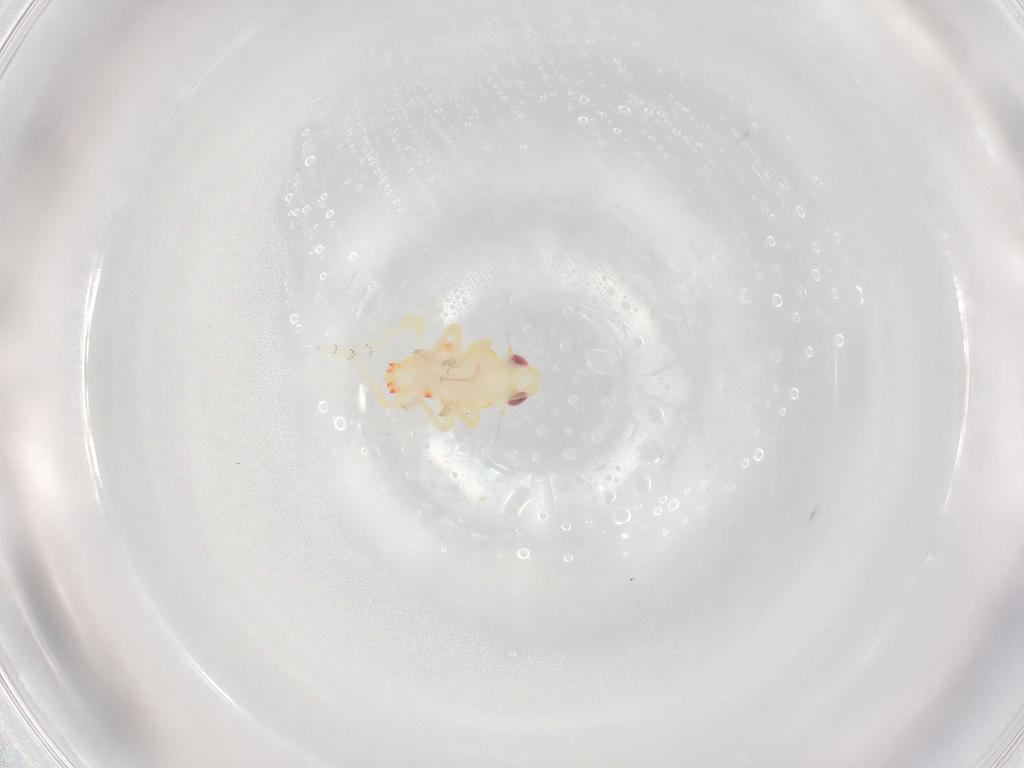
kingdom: Animalia
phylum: Arthropoda
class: Insecta
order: Hemiptera
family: Tropiduchidae
